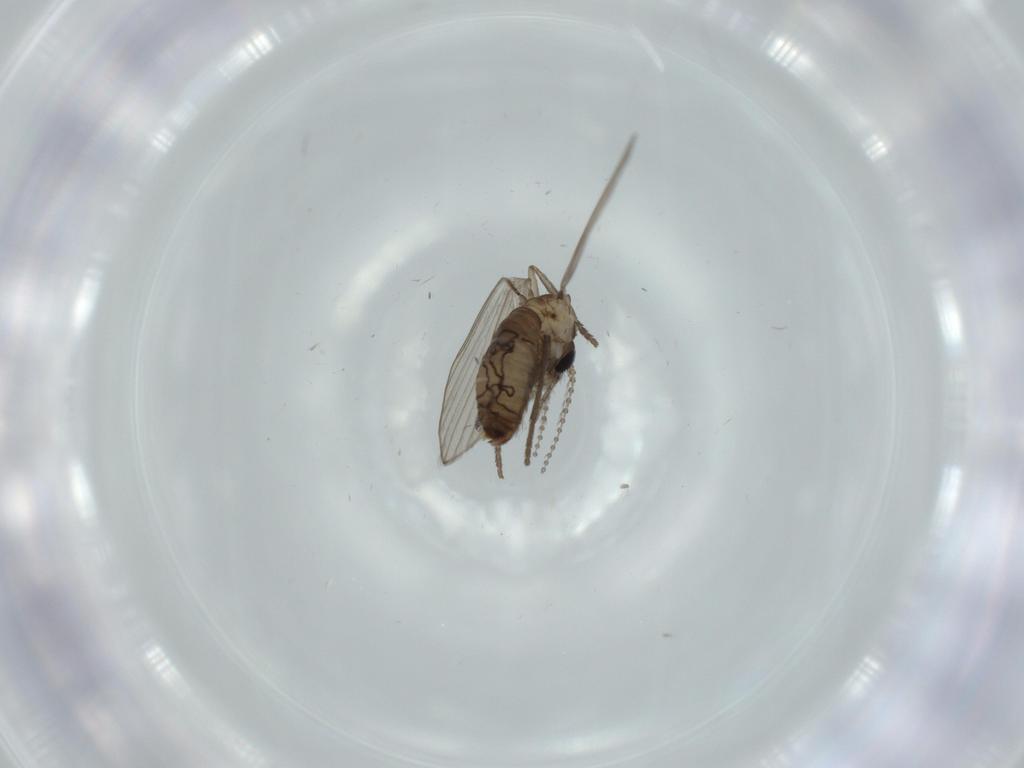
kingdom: Animalia
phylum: Arthropoda
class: Insecta
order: Diptera
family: Psychodidae
